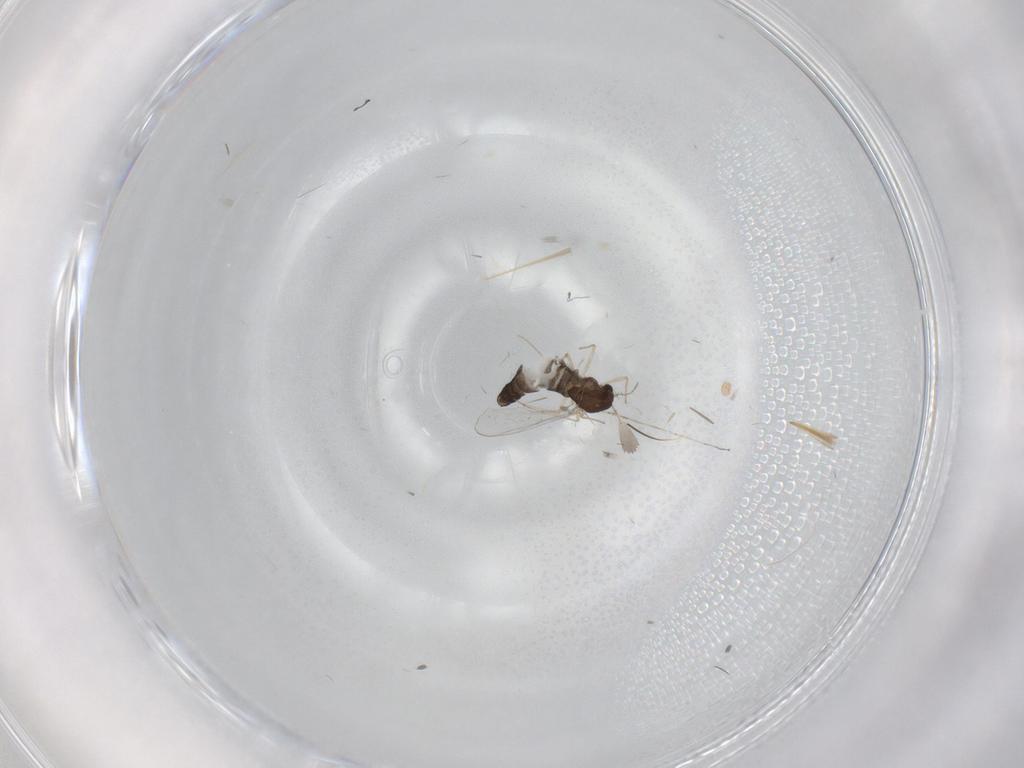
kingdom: Animalia
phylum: Arthropoda
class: Insecta
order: Diptera
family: Chironomidae
